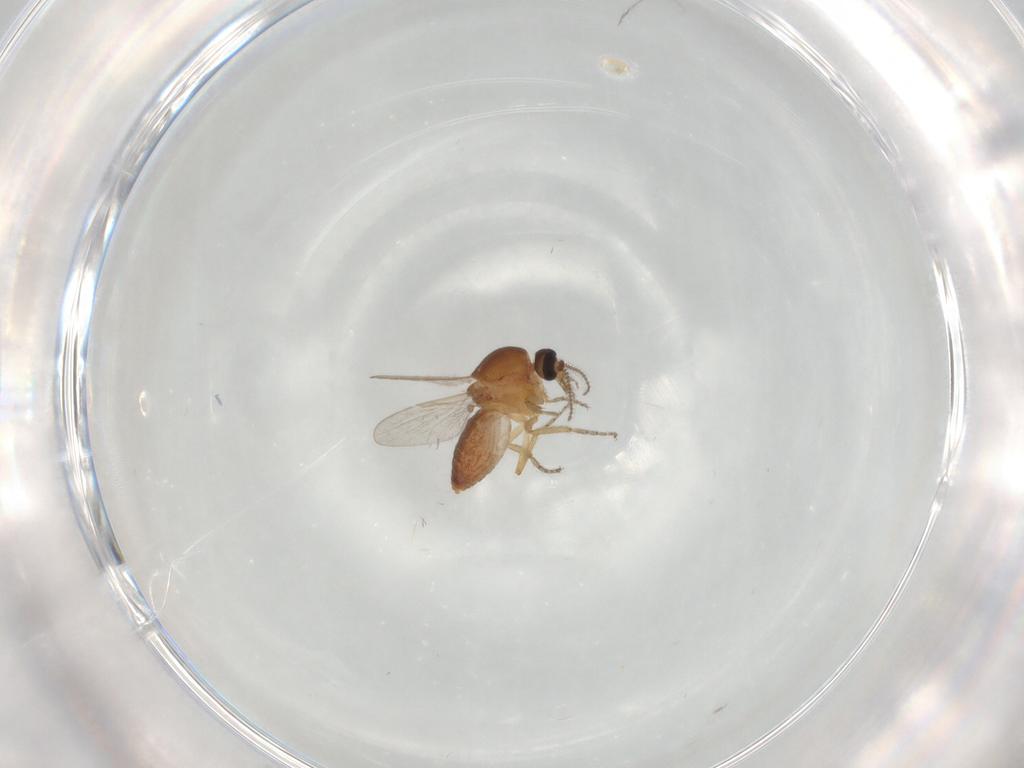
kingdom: Animalia
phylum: Arthropoda
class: Insecta
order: Diptera
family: Ceratopogonidae
